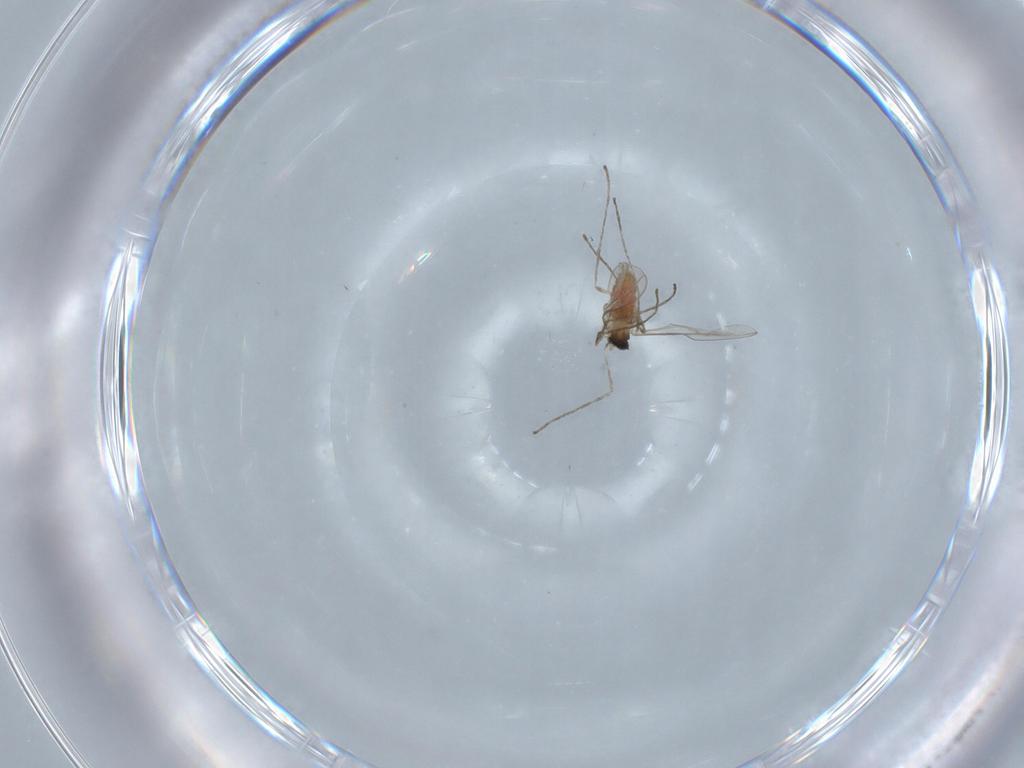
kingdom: Animalia
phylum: Arthropoda
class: Insecta
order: Diptera
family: Cecidomyiidae
